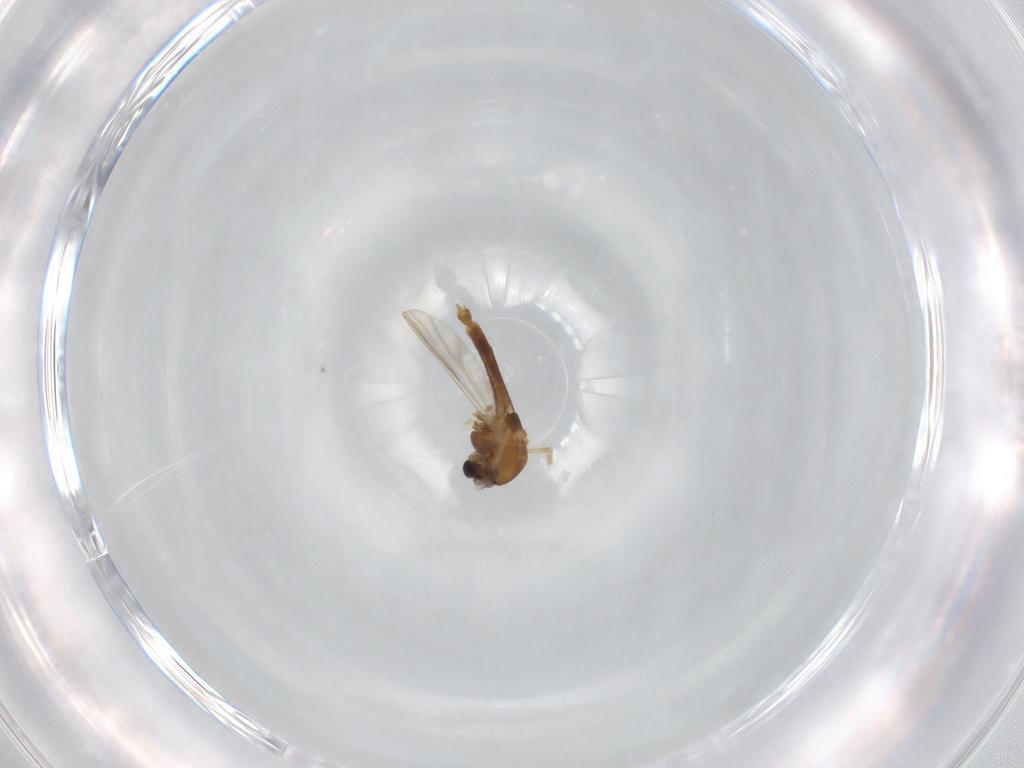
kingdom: Animalia
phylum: Arthropoda
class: Insecta
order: Diptera
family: Chironomidae
